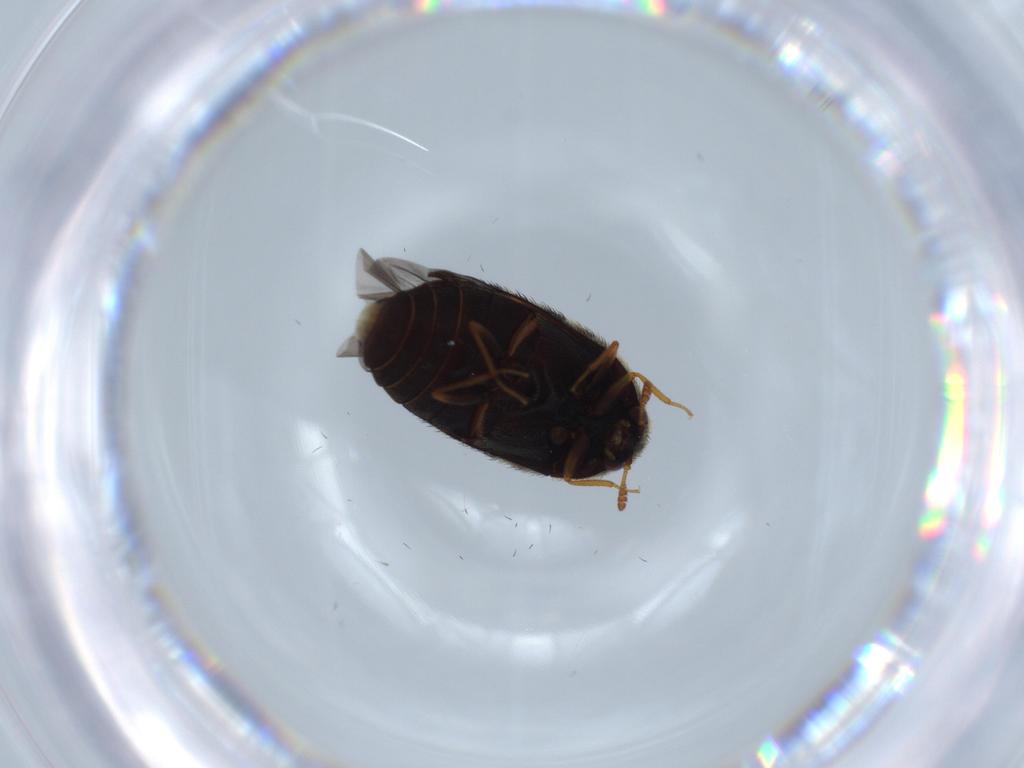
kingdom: Animalia
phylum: Arthropoda
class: Insecta
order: Coleoptera
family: Dermestidae
